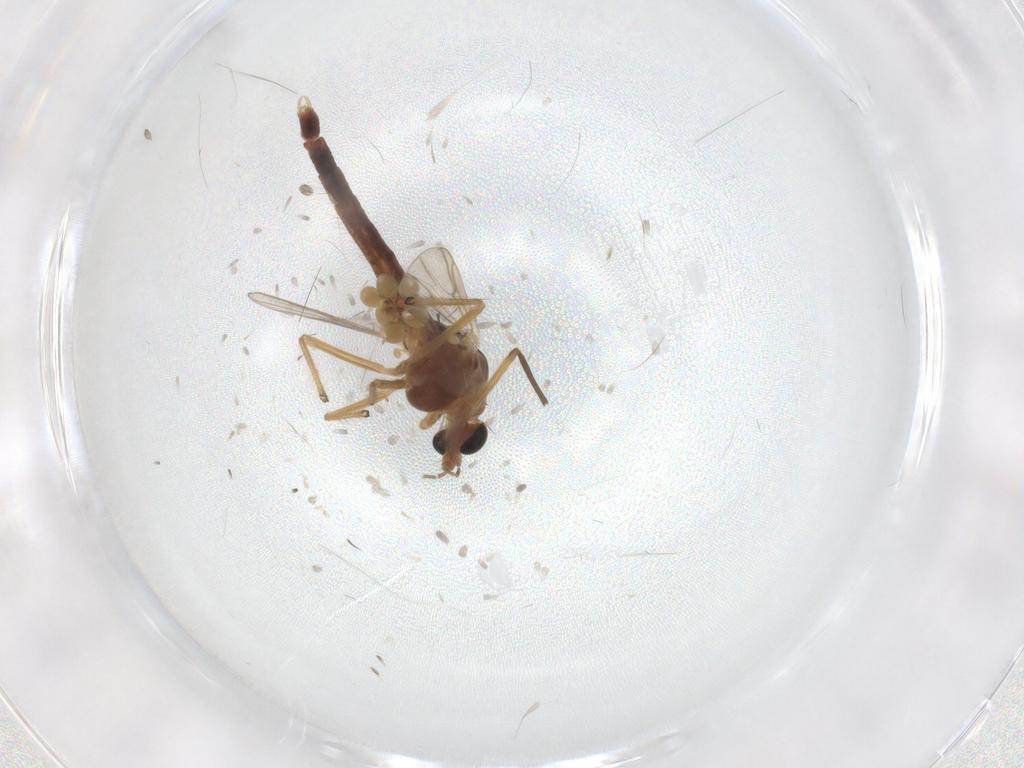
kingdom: Animalia
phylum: Arthropoda
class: Insecta
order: Diptera
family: Chironomidae
